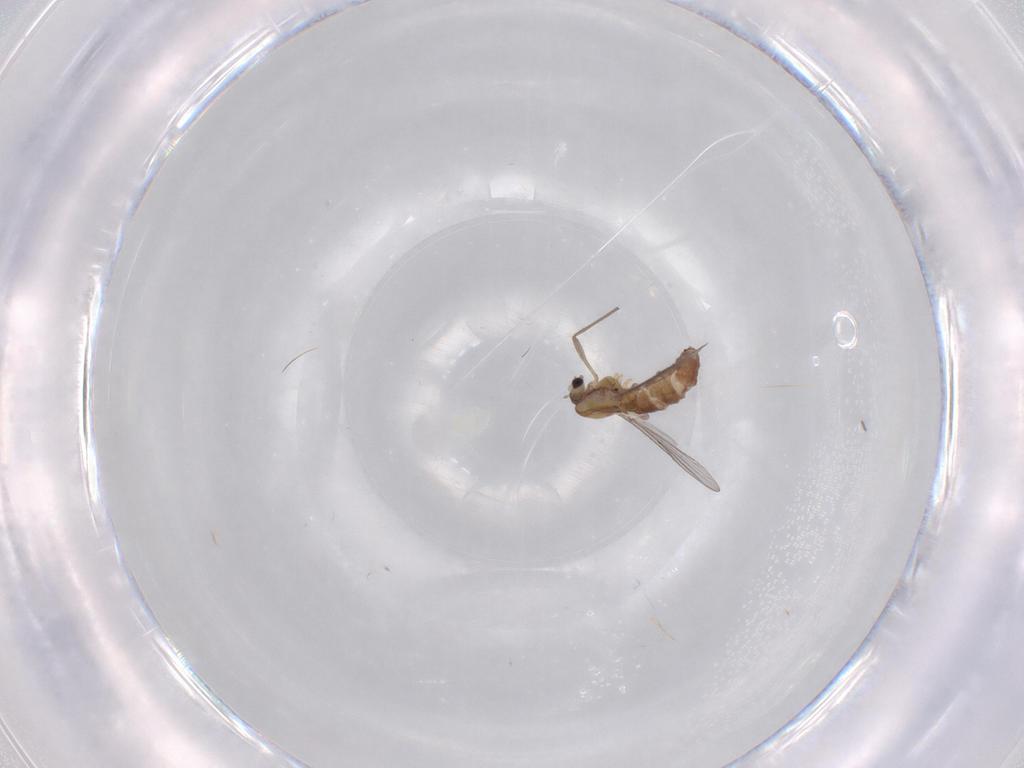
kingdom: Animalia
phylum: Arthropoda
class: Insecta
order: Diptera
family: Chironomidae
